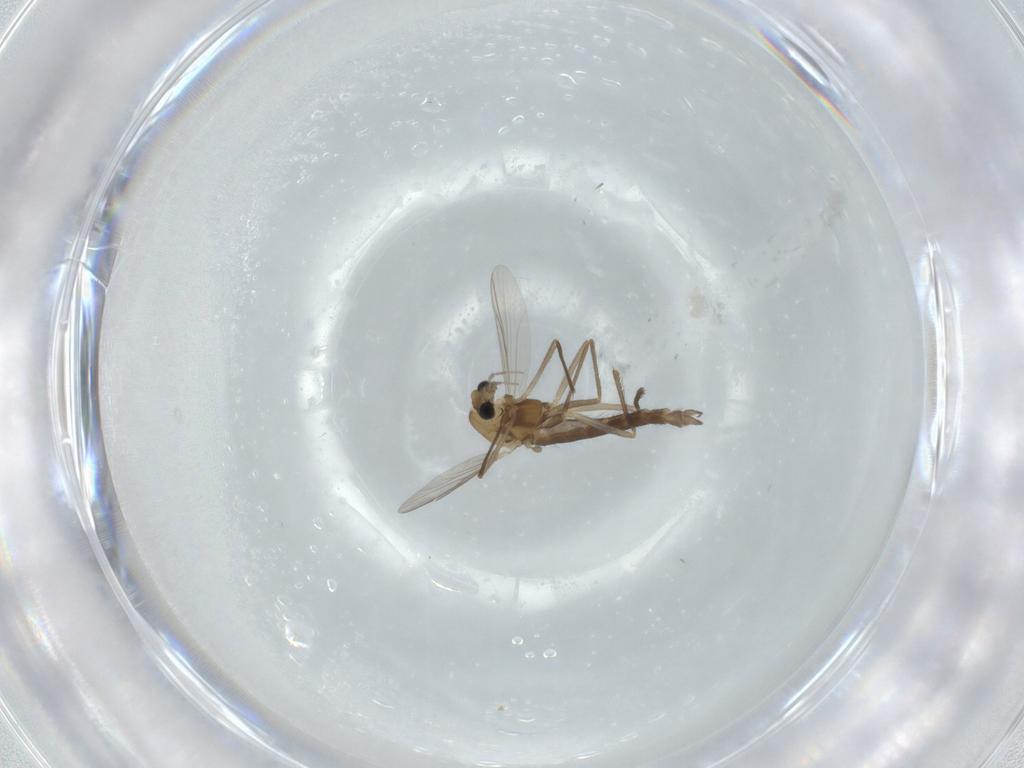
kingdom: Animalia
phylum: Arthropoda
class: Insecta
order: Diptera
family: Chironomidae
